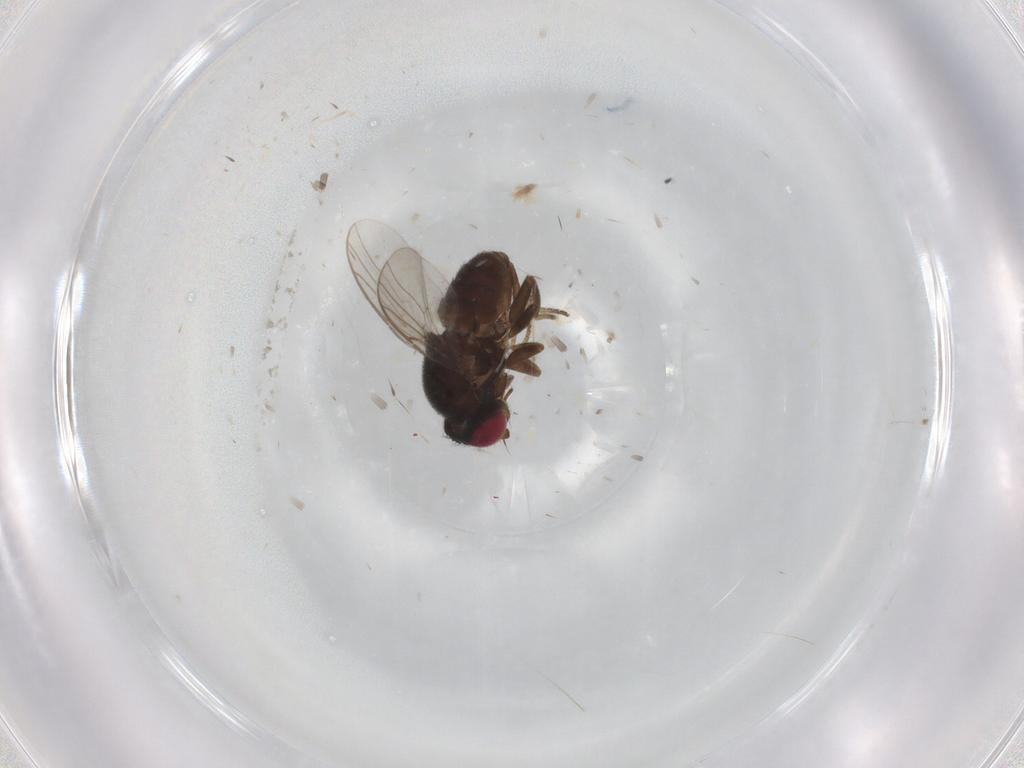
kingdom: Animalia
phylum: Arthropoda
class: Insecta
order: Diptera
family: Chloropidae
